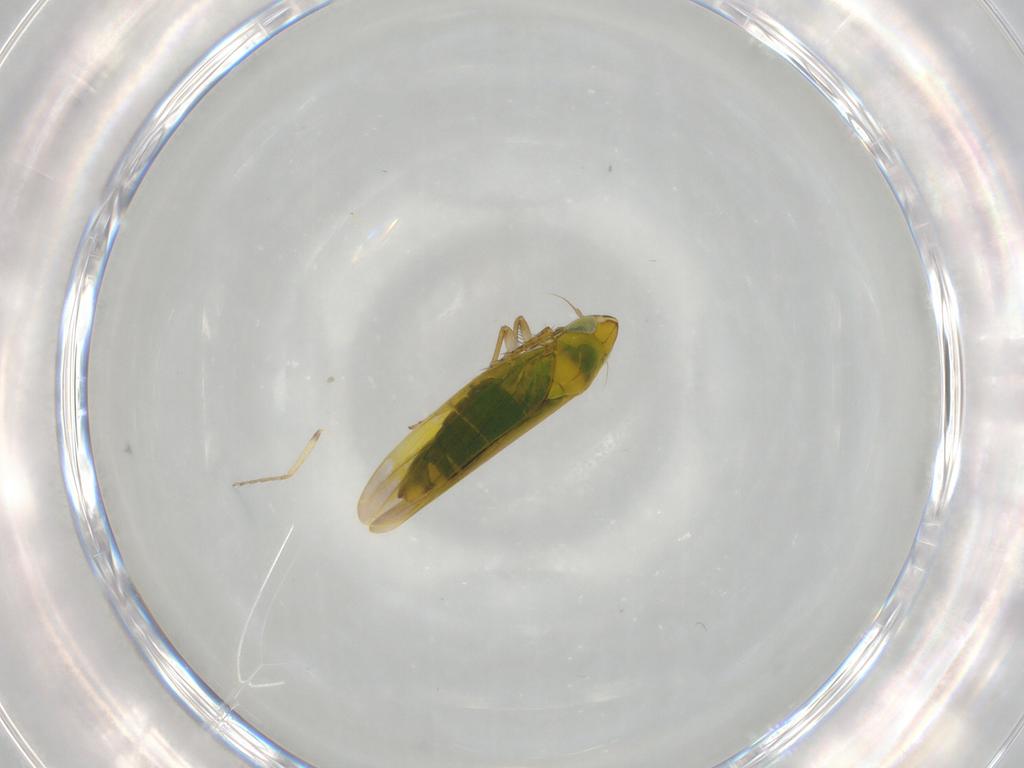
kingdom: Animalia
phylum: Arthropoda
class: Insecta
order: Hemiptera
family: Cicadellidae
